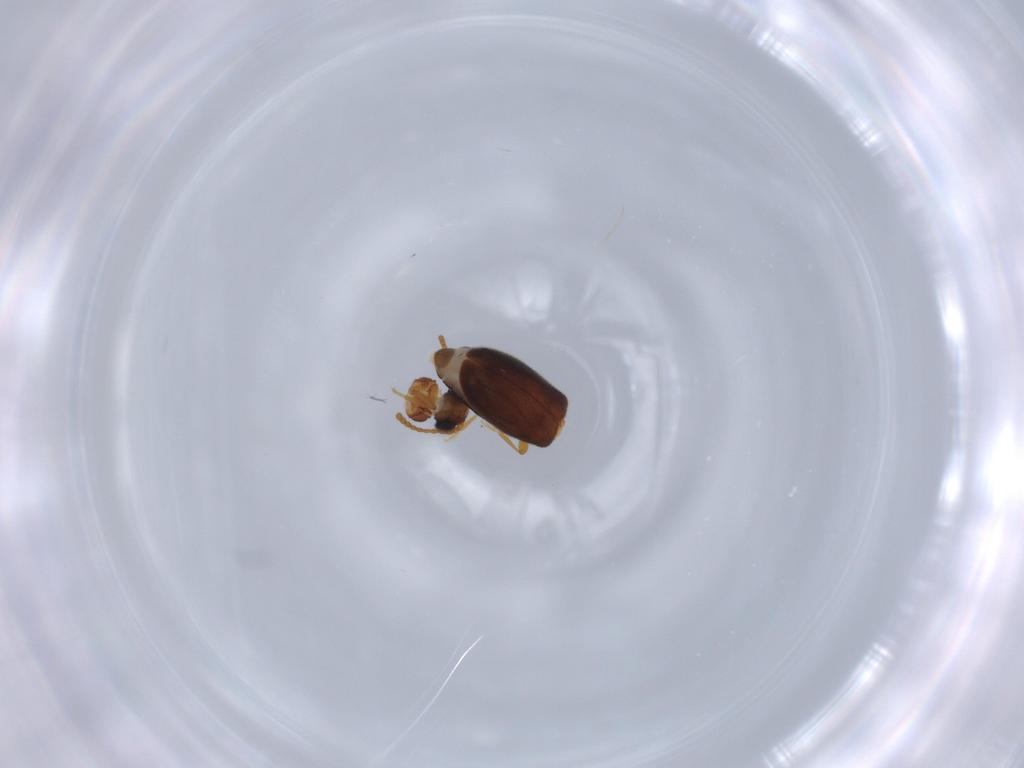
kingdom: Animalia
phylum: Arthropoda
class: Insecta
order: Coleoptera
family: Aderidae
